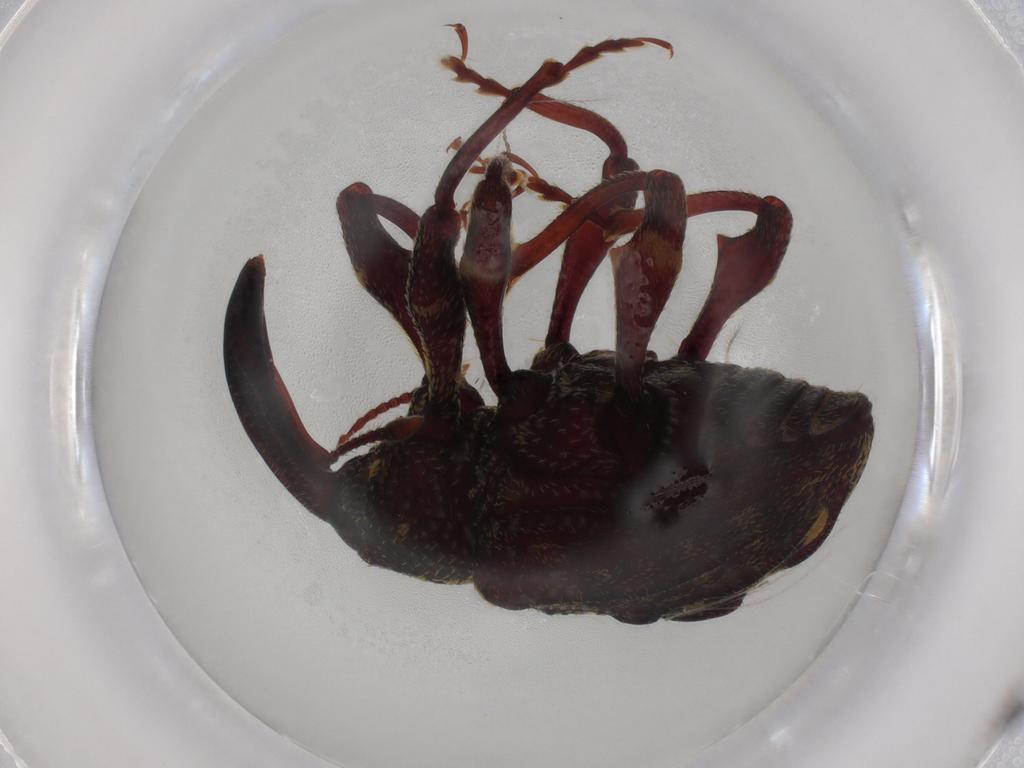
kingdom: Animalia
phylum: Arthropoda
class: Insecta
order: Coleoptera
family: Curculionidae
